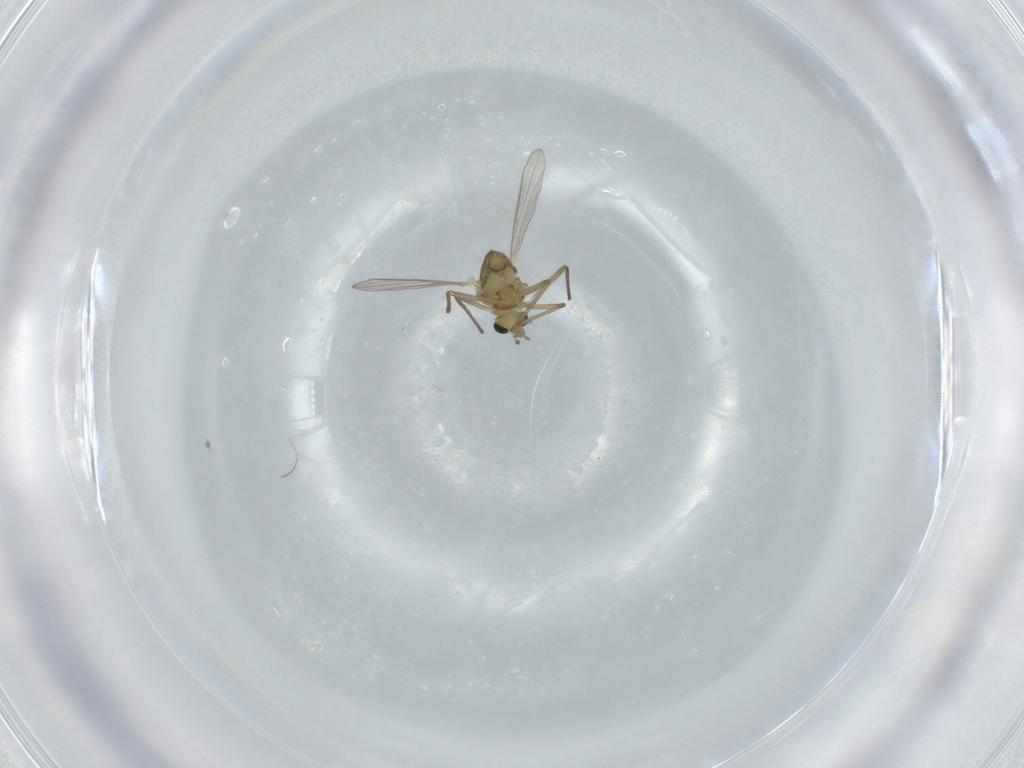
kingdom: Animalia
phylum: Arthropoda
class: Insecta
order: Diptera
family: Chironomidae
